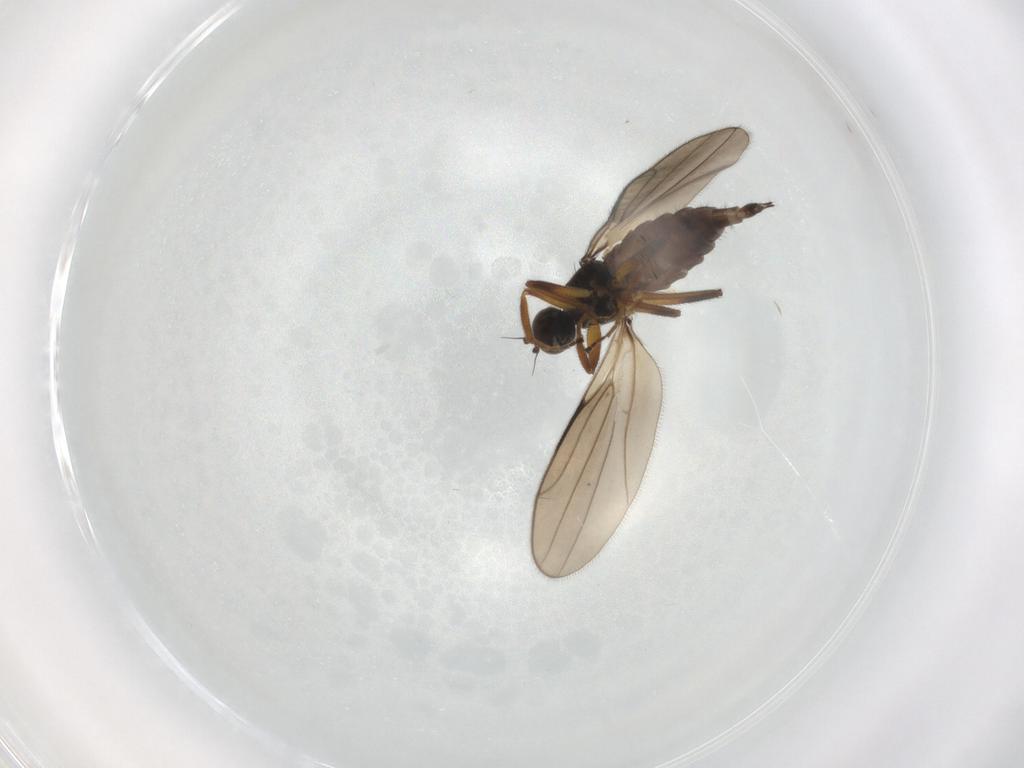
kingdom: Animalia
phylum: Arthropoda
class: Insecta
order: Diptera
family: Hybotidae
